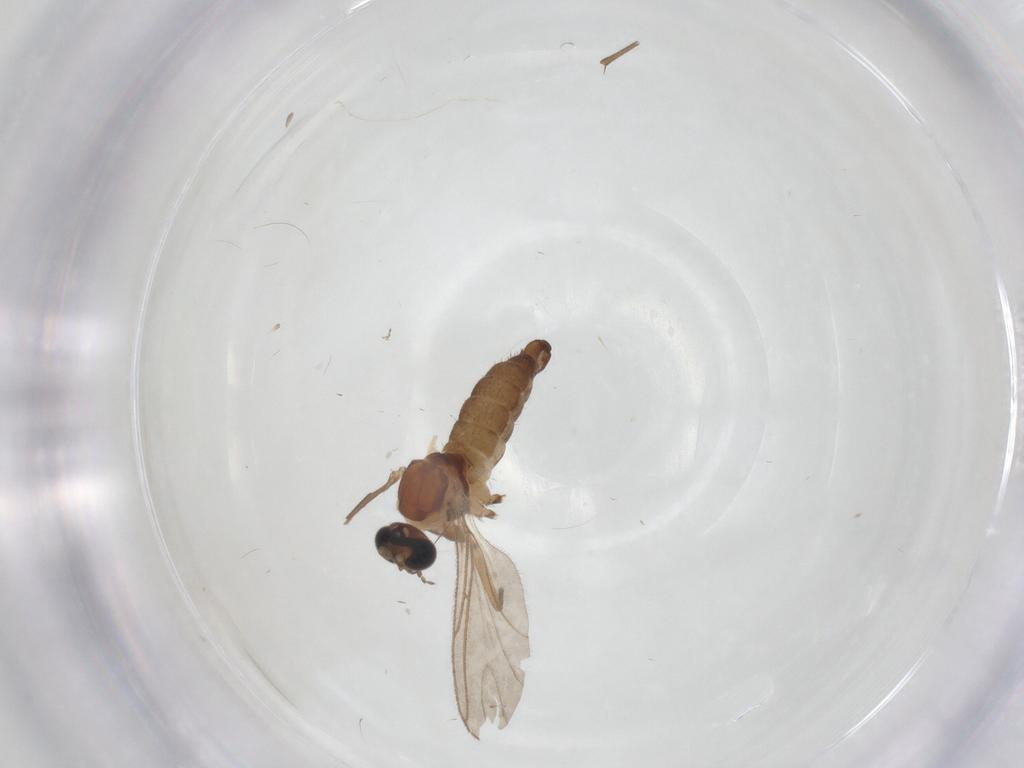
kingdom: Animalia
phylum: Arthropoda
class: Insecta
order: Diptera
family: Sciaridae
